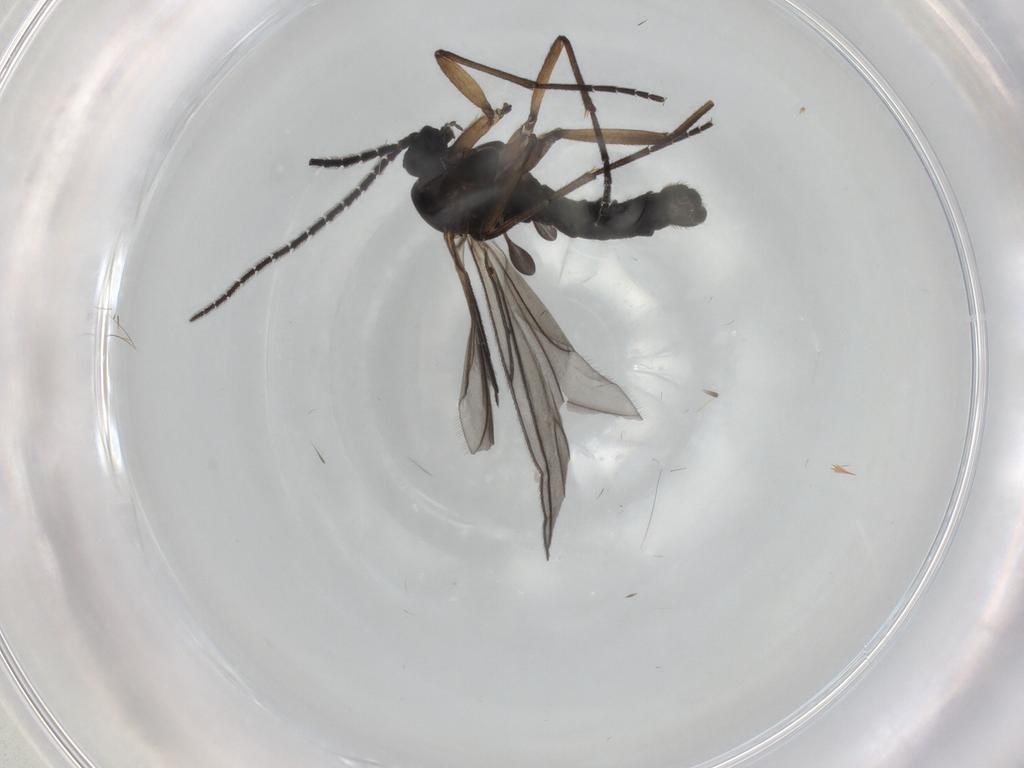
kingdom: Animalia
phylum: Arthropoda
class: Insecta
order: Diptera
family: Sciaridae
